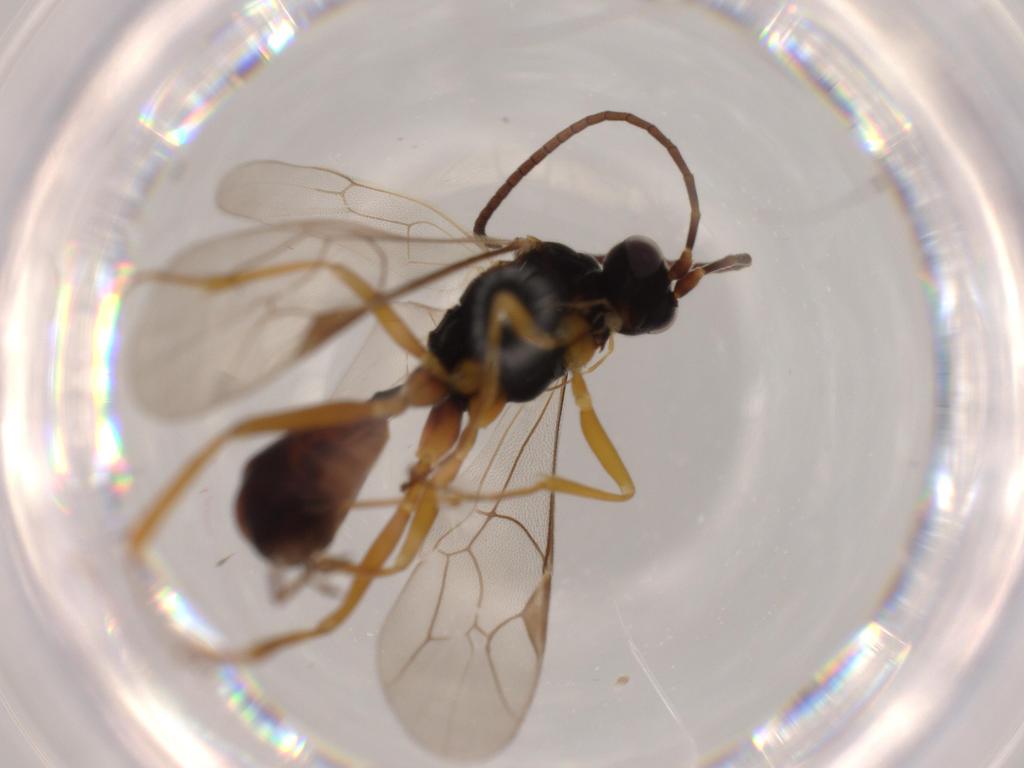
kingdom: Animalia
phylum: Arthropoda
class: Insecta
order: Hymenoptera
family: Ichneumonidae
